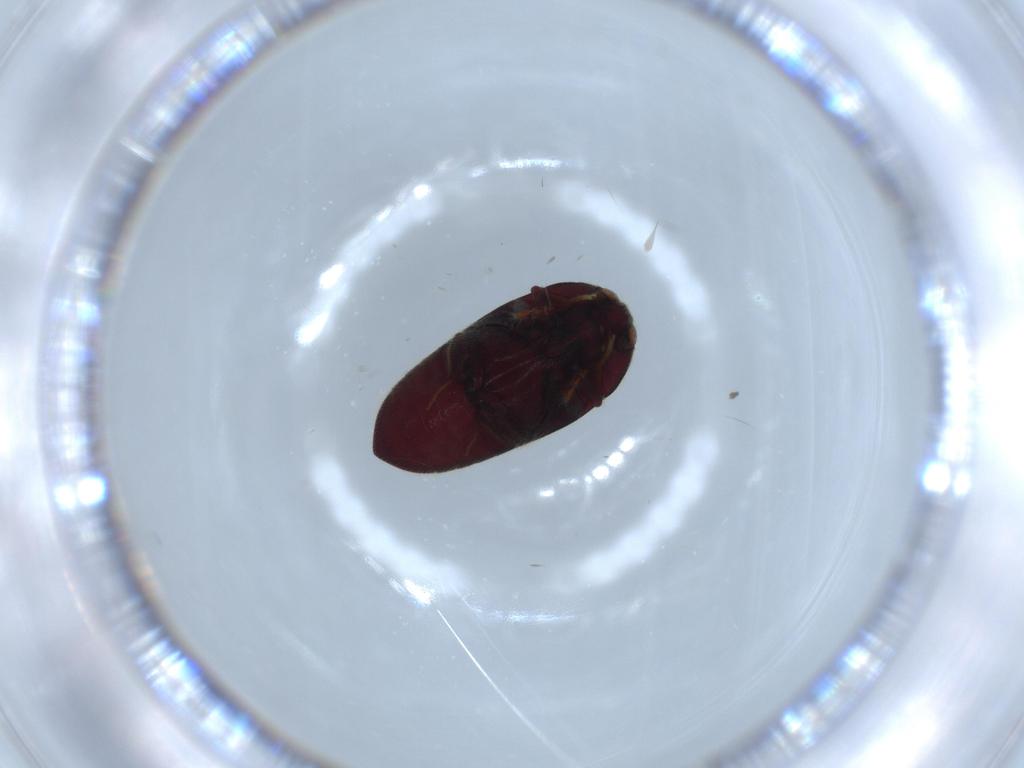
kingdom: Animalia
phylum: Arthropoda
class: Insecta
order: Coleoptera
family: Throscidae
